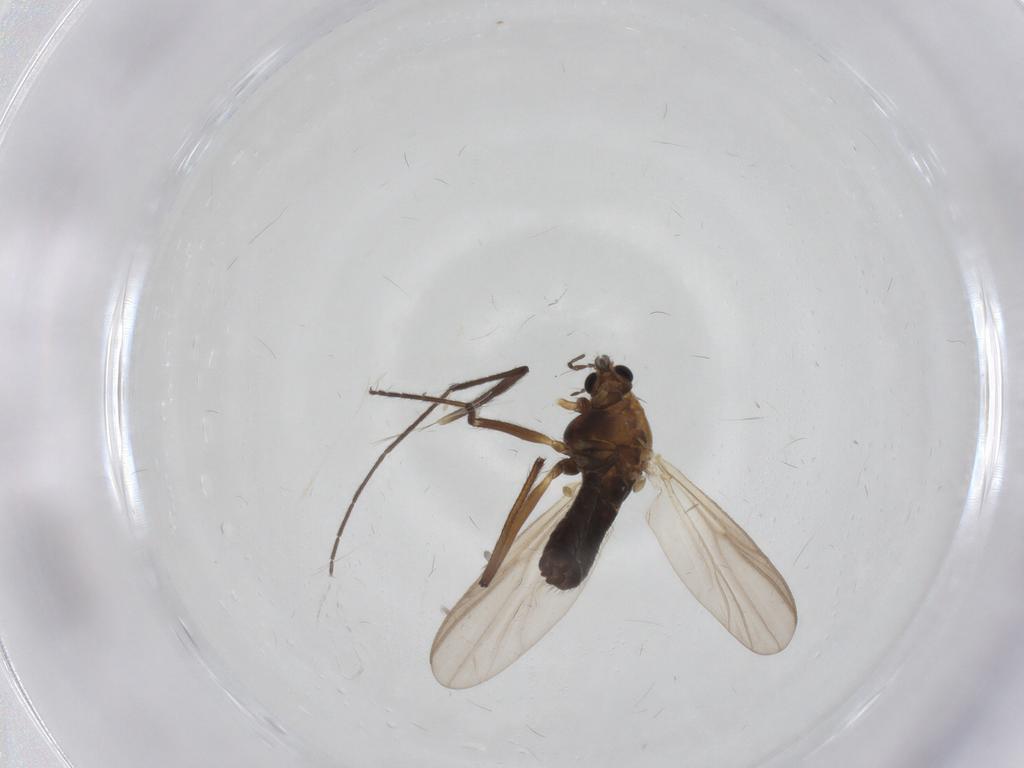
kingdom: Animalia
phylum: Arthropoda
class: Insecta
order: Diptera
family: Chironomidae
